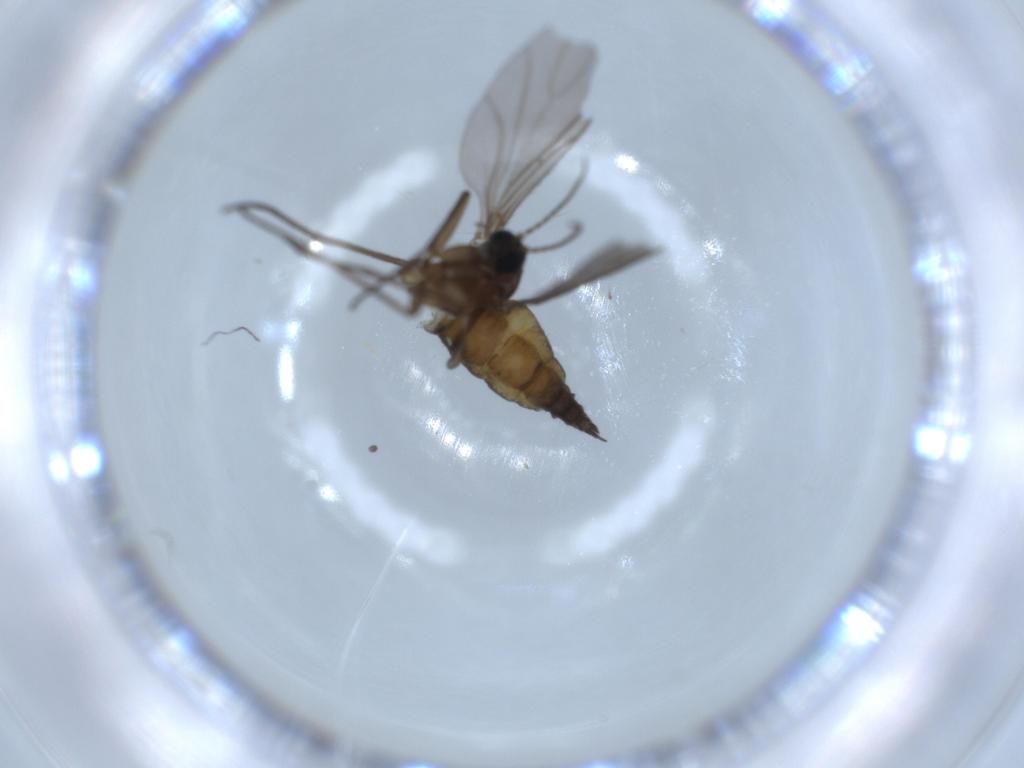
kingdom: Animalia
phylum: Arthropoda
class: Insecta
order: Diptera
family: Sciaridae
